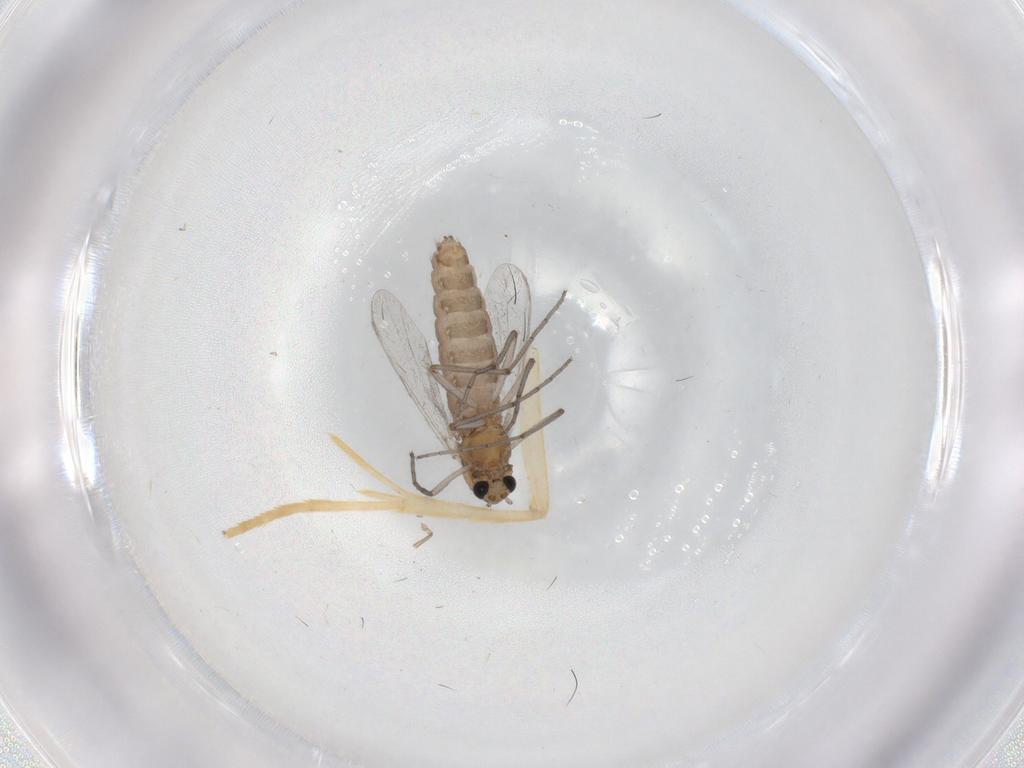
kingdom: Animalia
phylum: Arthropoda
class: Insecta
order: Diptera
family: Chironomidae
